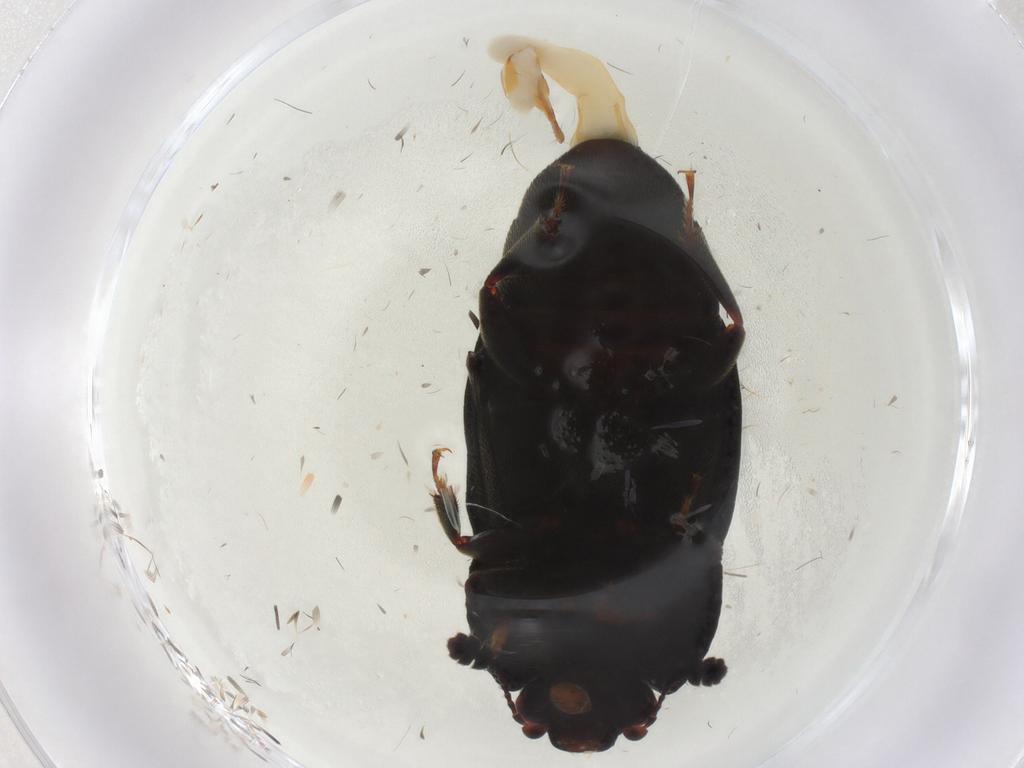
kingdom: Animalia
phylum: Arthropoda
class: Insecta
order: Coleoptera
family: Nitidulidae
